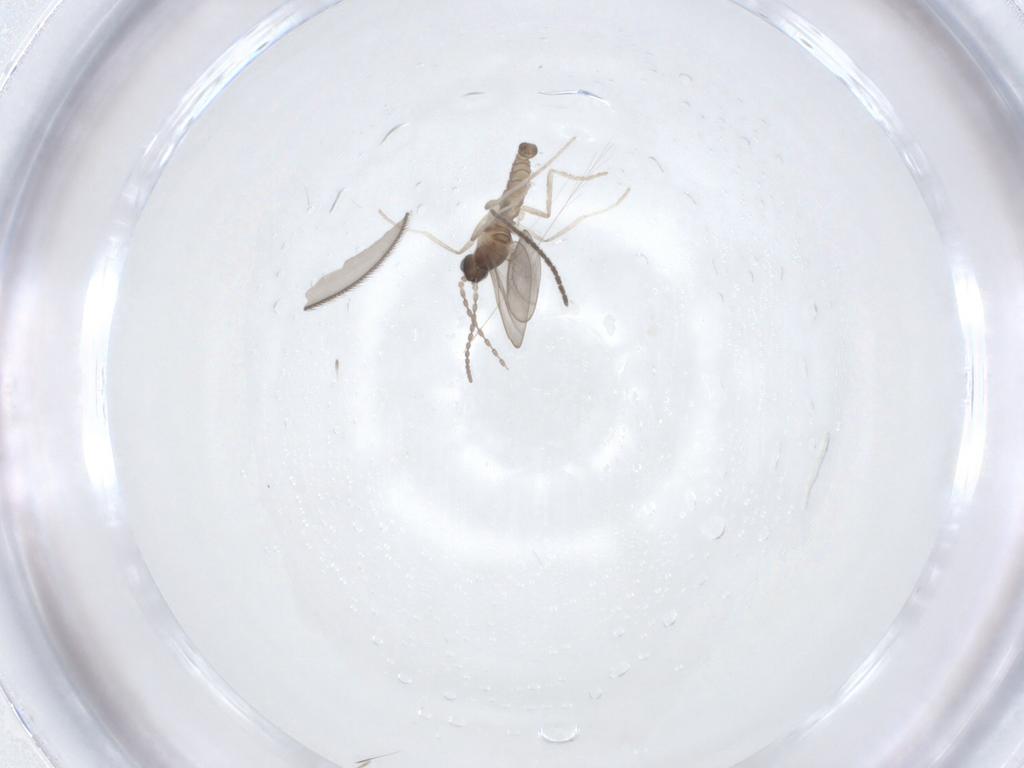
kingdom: Animalia
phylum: Arthropoda
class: Insecta
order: Diptera
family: Cecidomyiidae
